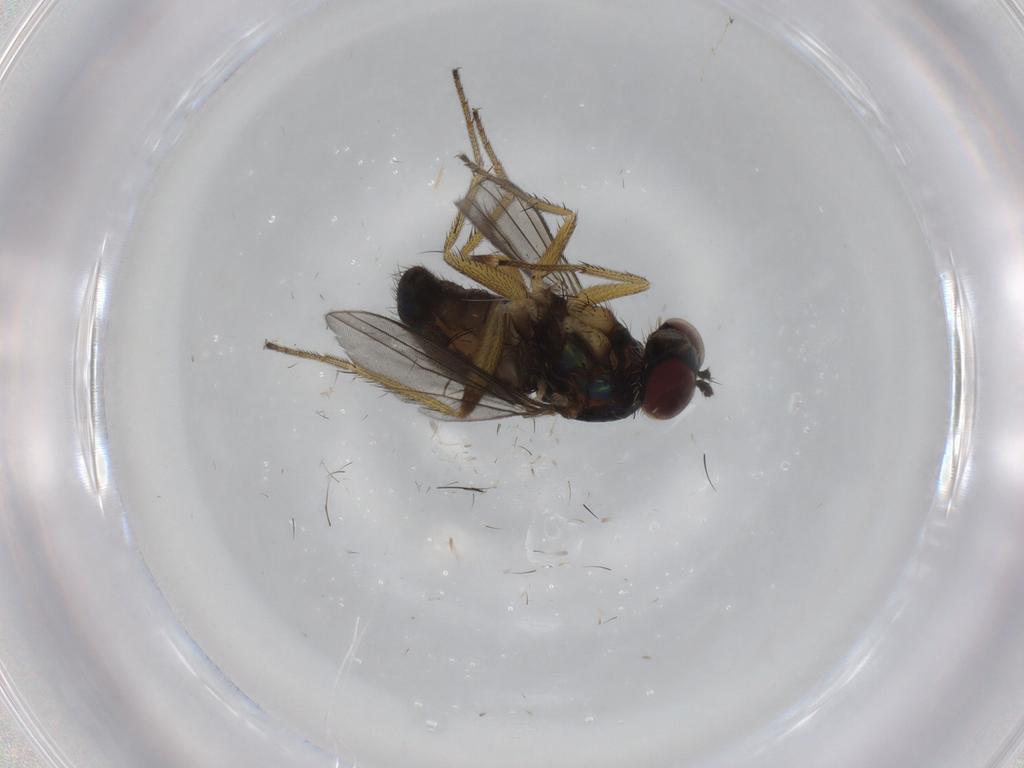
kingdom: Animalia
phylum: Arthropoda
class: Insecta
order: Diptera
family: Dolichopodidae
